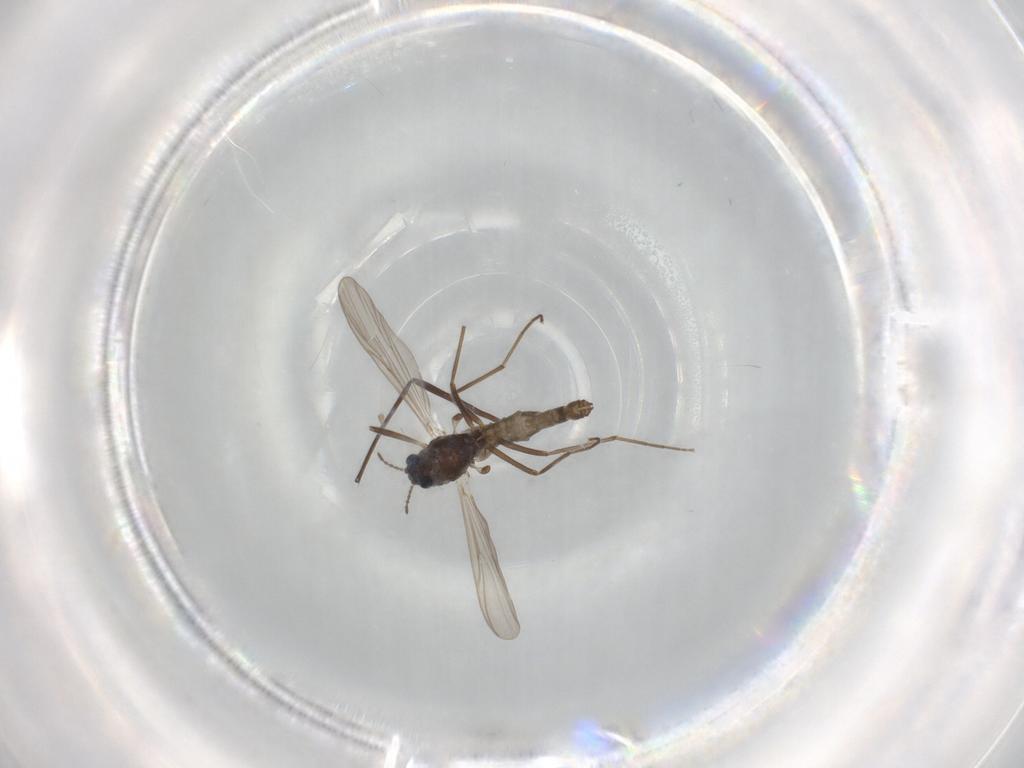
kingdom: Animalia
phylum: Arthropoda
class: Insecta
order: Diptera
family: Chironomidae
